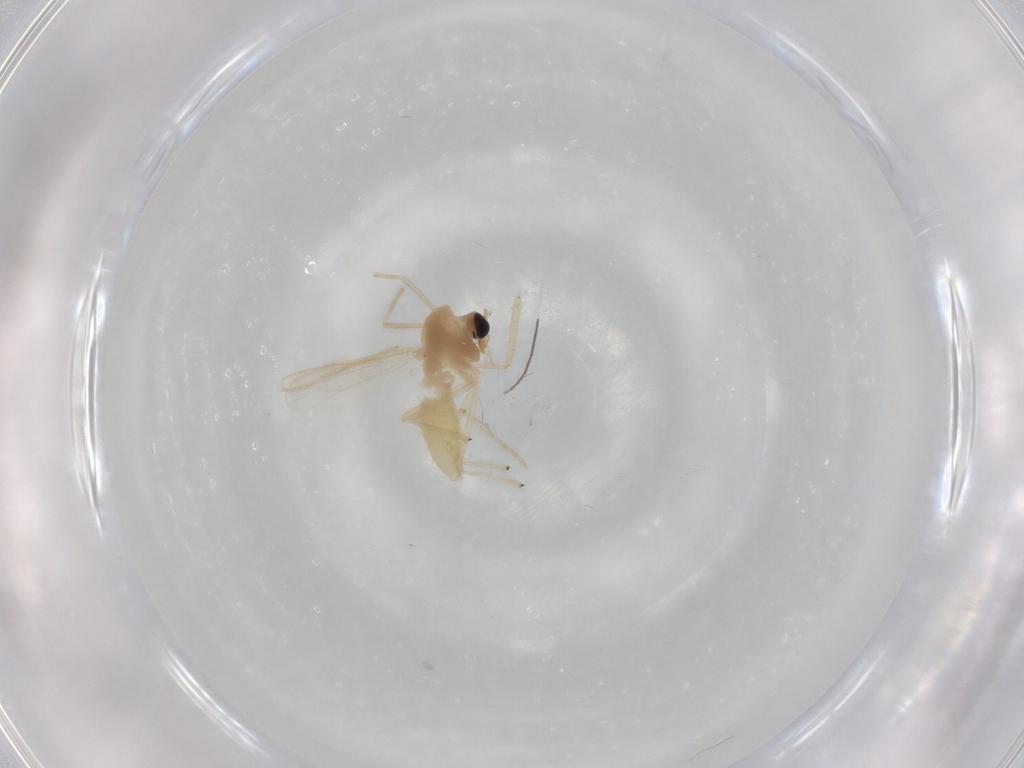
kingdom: Animalia
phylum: Arthropoda
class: Insecta
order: Diptera
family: Chironomidae
